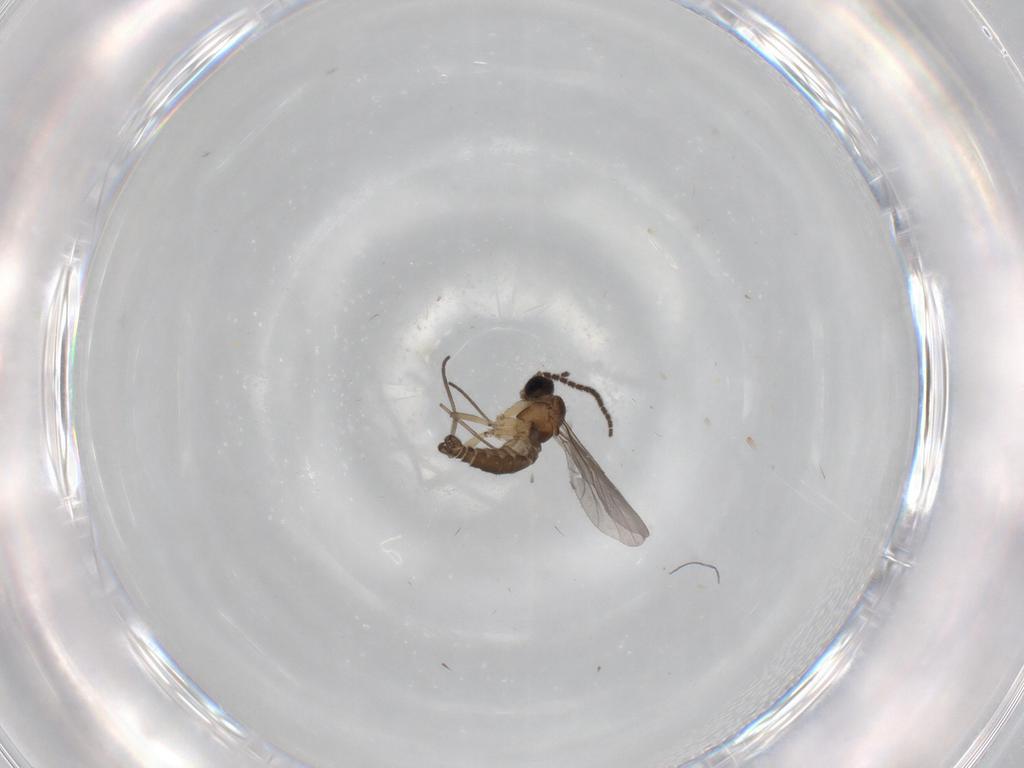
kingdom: Animalia
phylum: Arthropoda
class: Insecta
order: Diptera
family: Sciaridae
